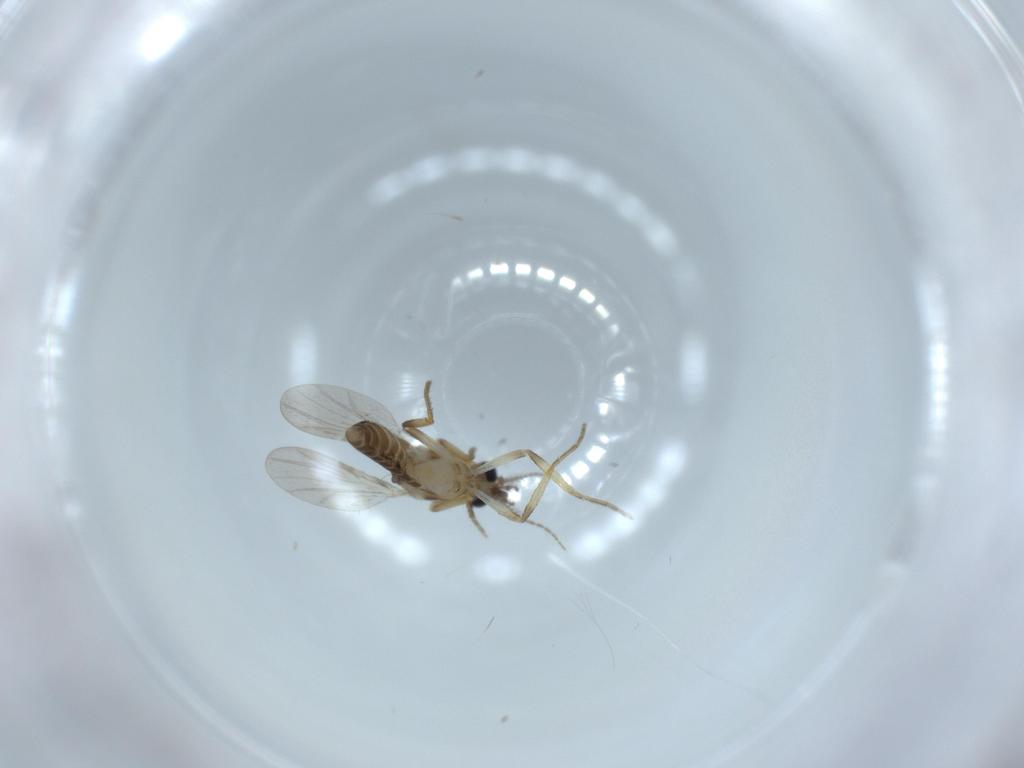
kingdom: Animalia
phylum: Arthropoda
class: Insecta
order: Diptera
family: Ceratopogonidae
